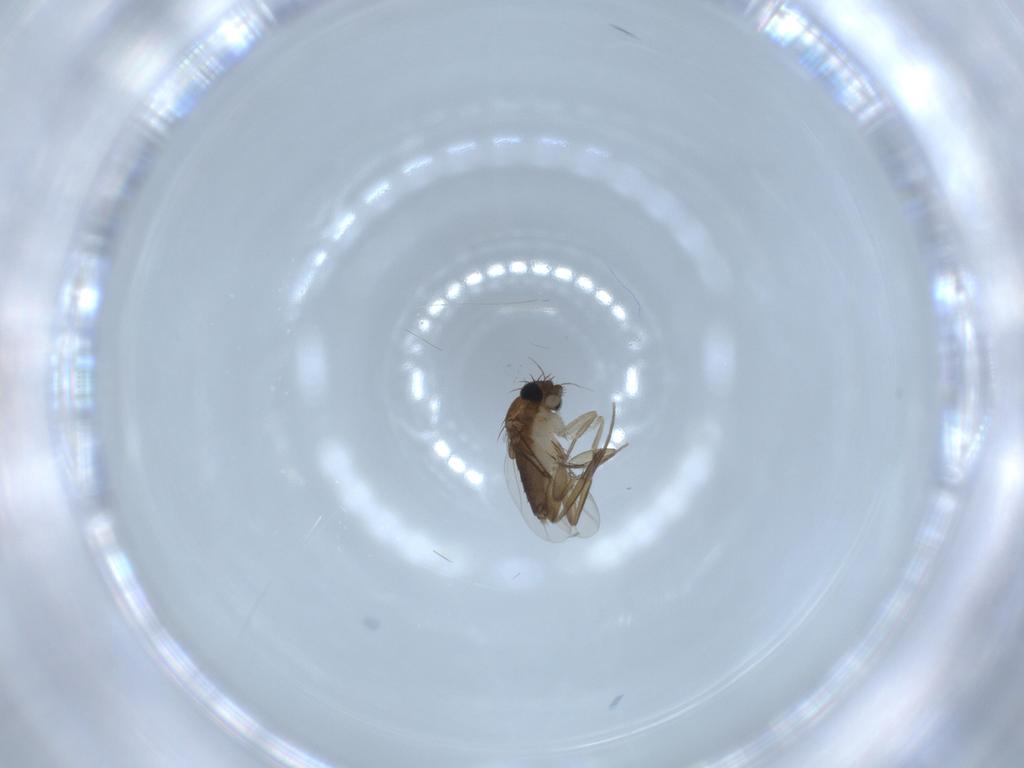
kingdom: Animalia
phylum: Arthropoda
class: Insecta
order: Diptera
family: Phoridae
